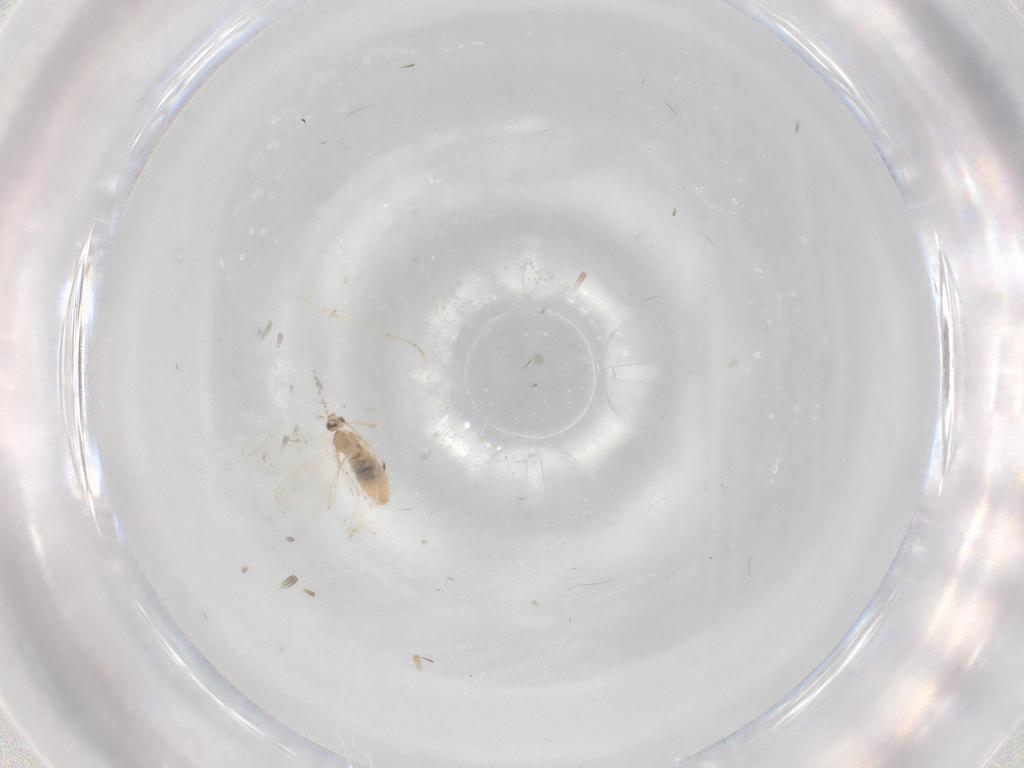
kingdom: Animalia
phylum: Arthropoda
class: Insecta
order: Diptera
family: Cecidomyiidae
